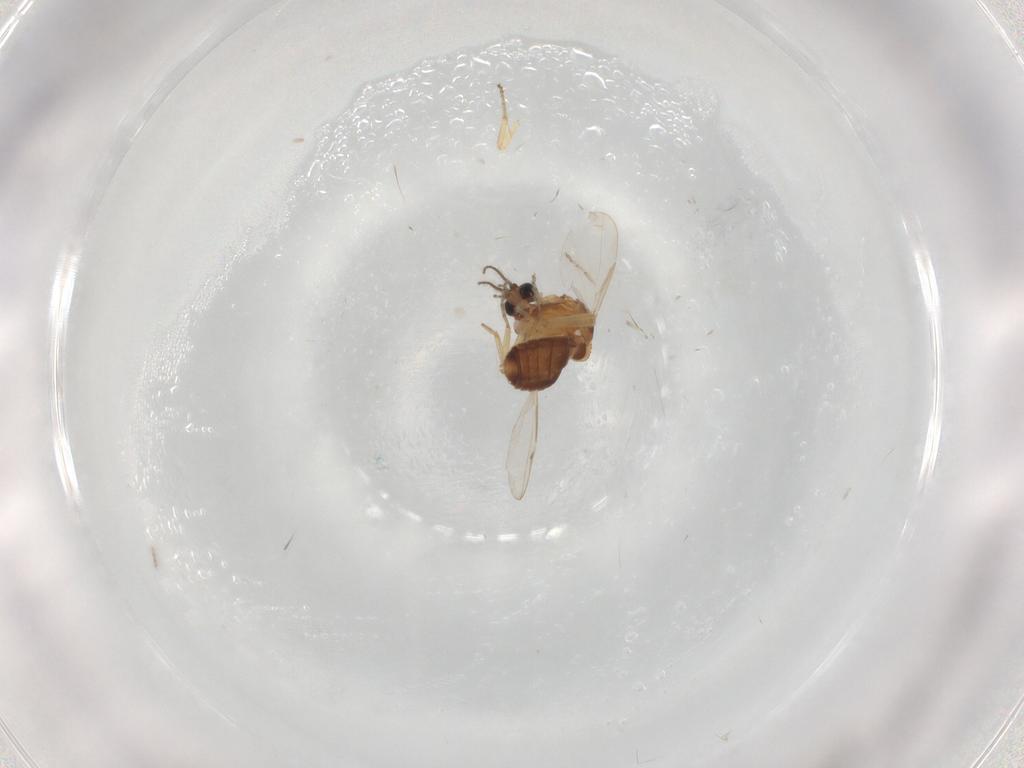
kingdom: Animalia
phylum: Arthropoda
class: Insecta
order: Diptera
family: Ceratopogonidae
